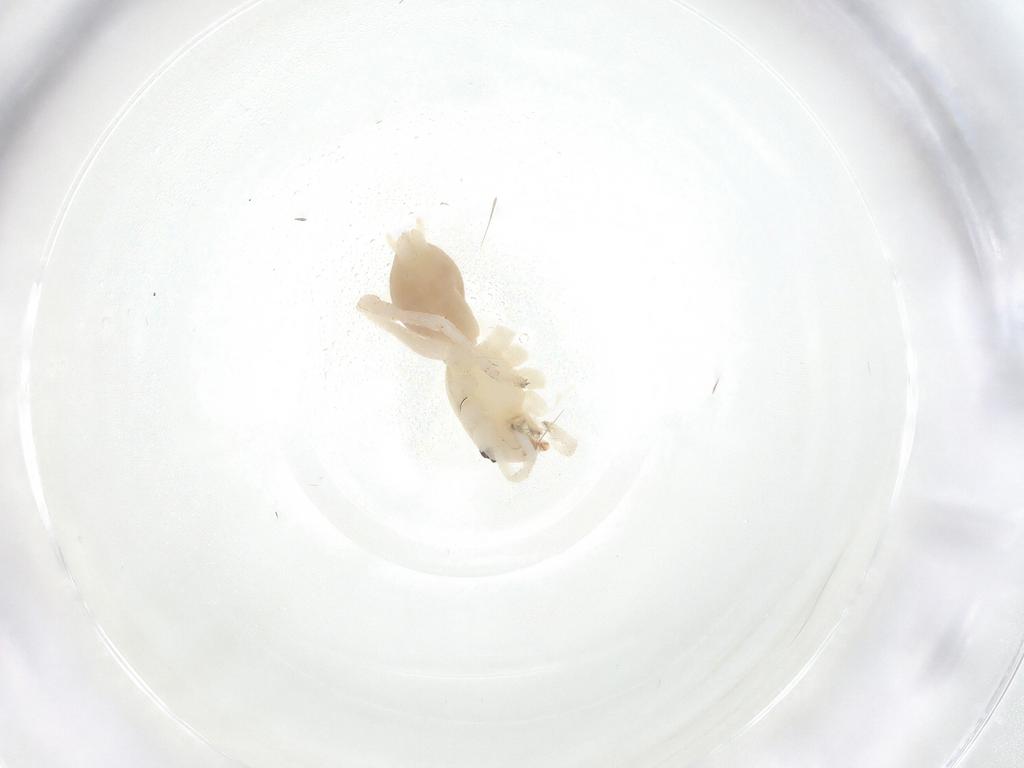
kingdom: Animalia
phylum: Arthropoda
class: Arachnida
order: Araneae
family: Anyphaenidae
